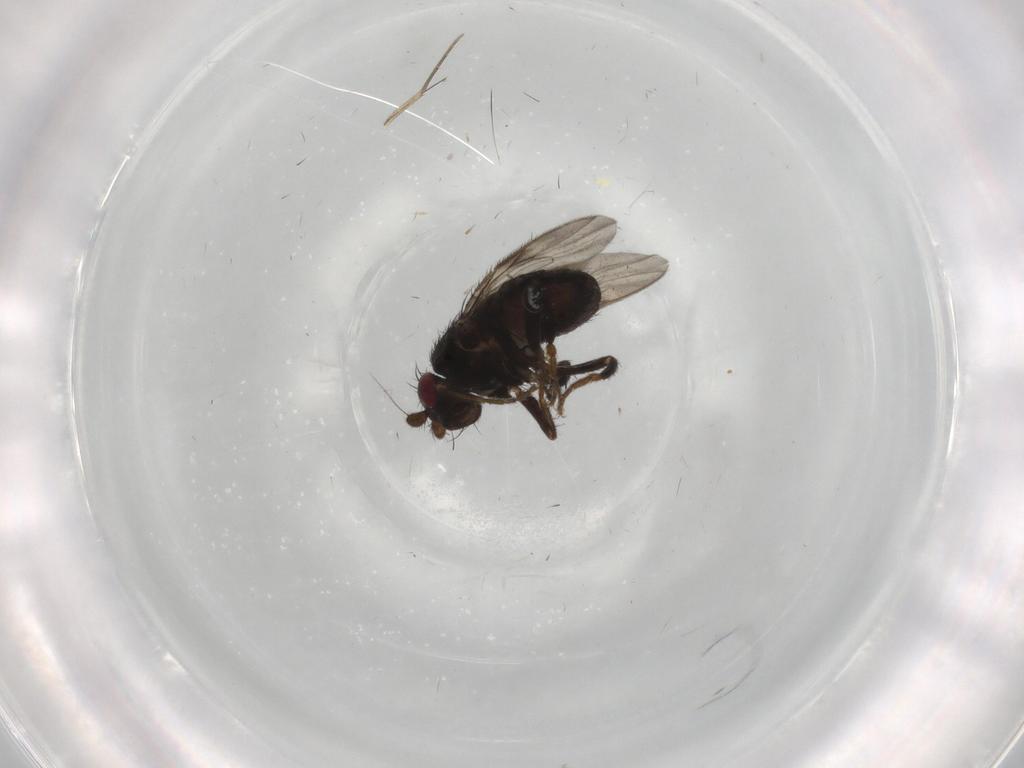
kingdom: Animalia
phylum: Arthropoda
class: Insecta
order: Diptera
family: Sphaeroceridae
